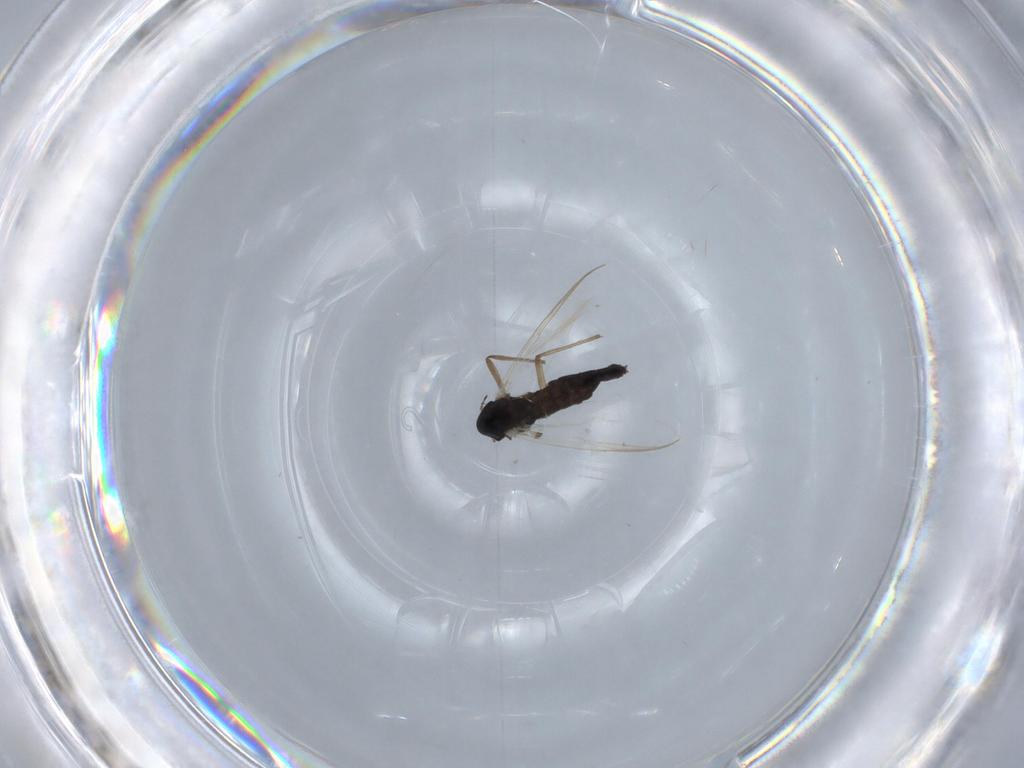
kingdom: Animalia
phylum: Arthropoda
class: Insecta
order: Diptera
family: Chironomidae
